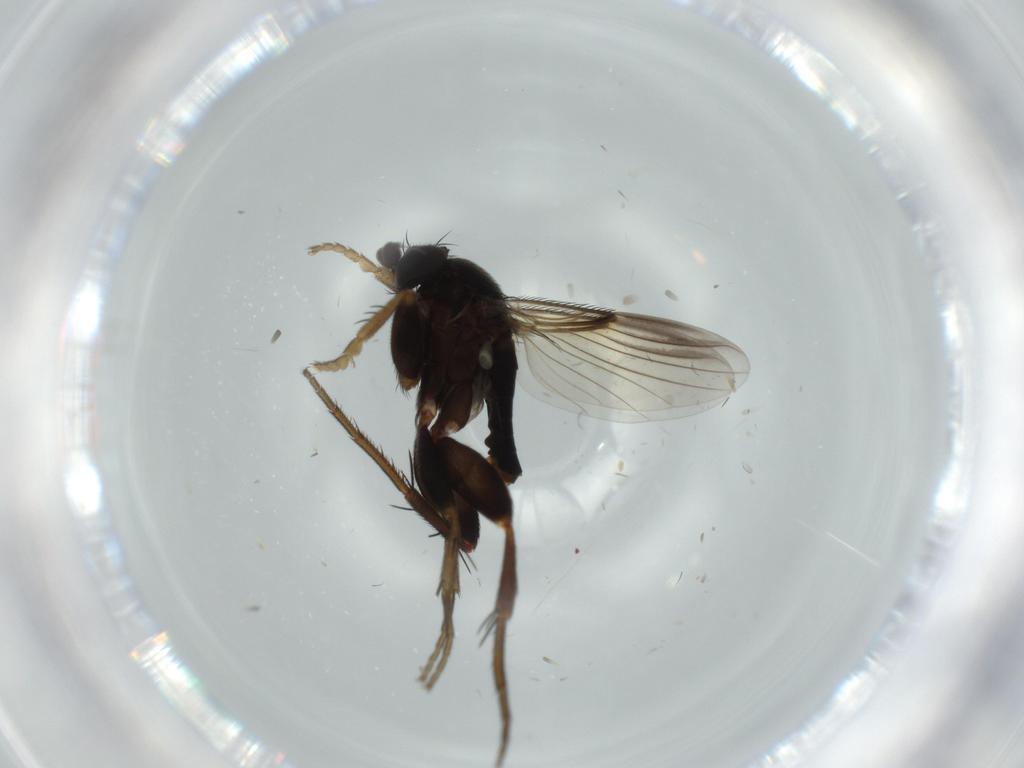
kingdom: Animalia
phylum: Arthropoda
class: Insecta
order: Diptera
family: Phoridae
